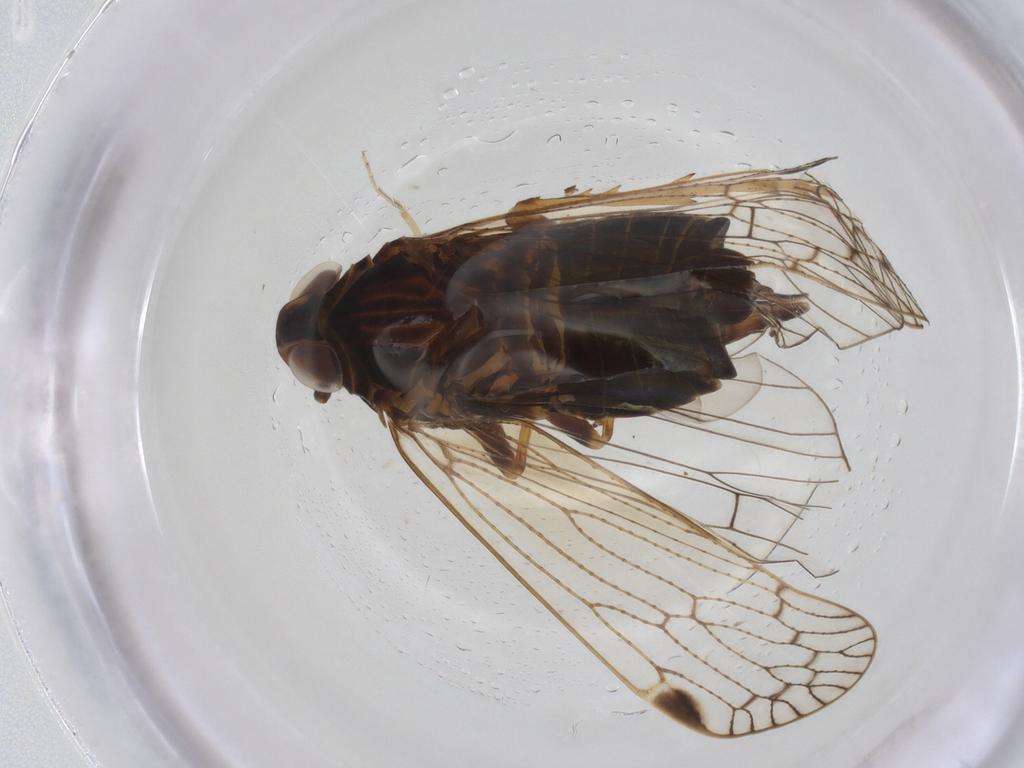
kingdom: Animalia
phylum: Arthropoda
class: Insecta
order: Hemiptera
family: Cixiidae
